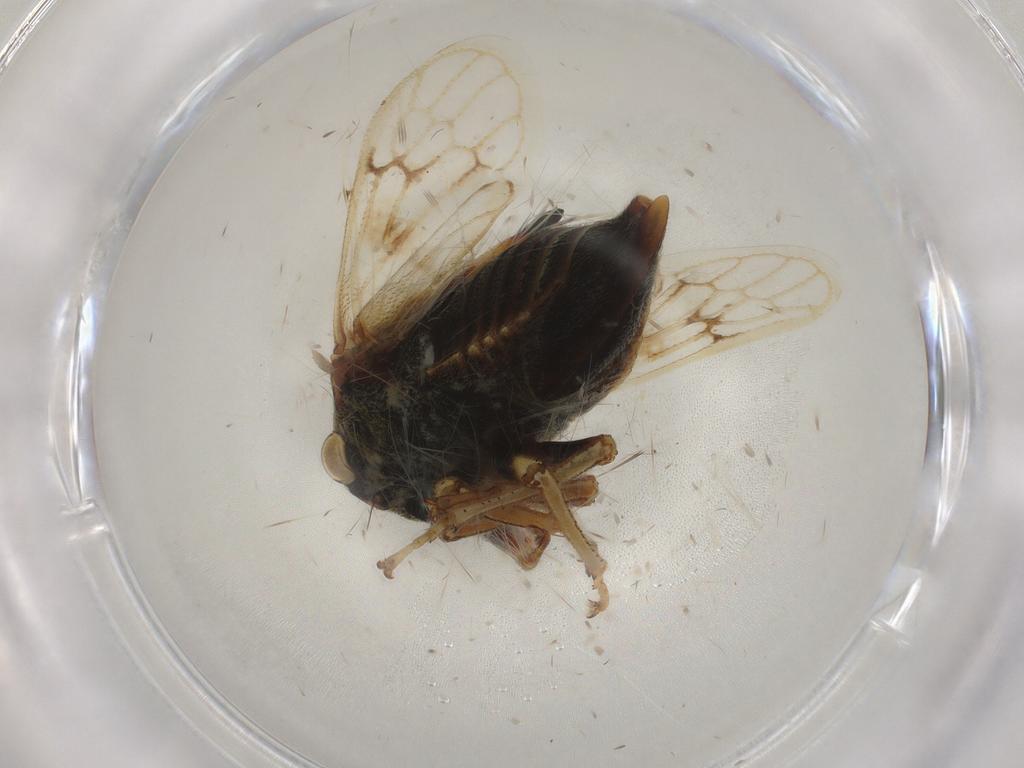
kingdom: Animalia
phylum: Arthropoda
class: Insecta
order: Hemiptera
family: Membracidae
